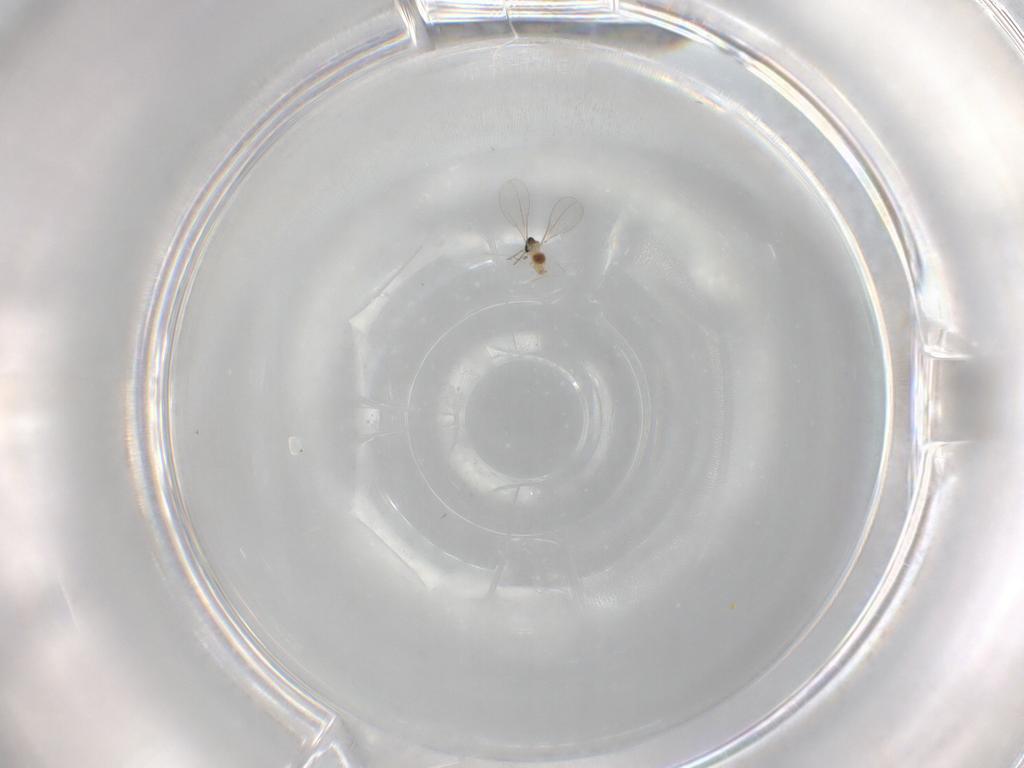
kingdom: Animalia
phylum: Arthropoda
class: Insecta
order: Diptera
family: Cecidomyiidae
